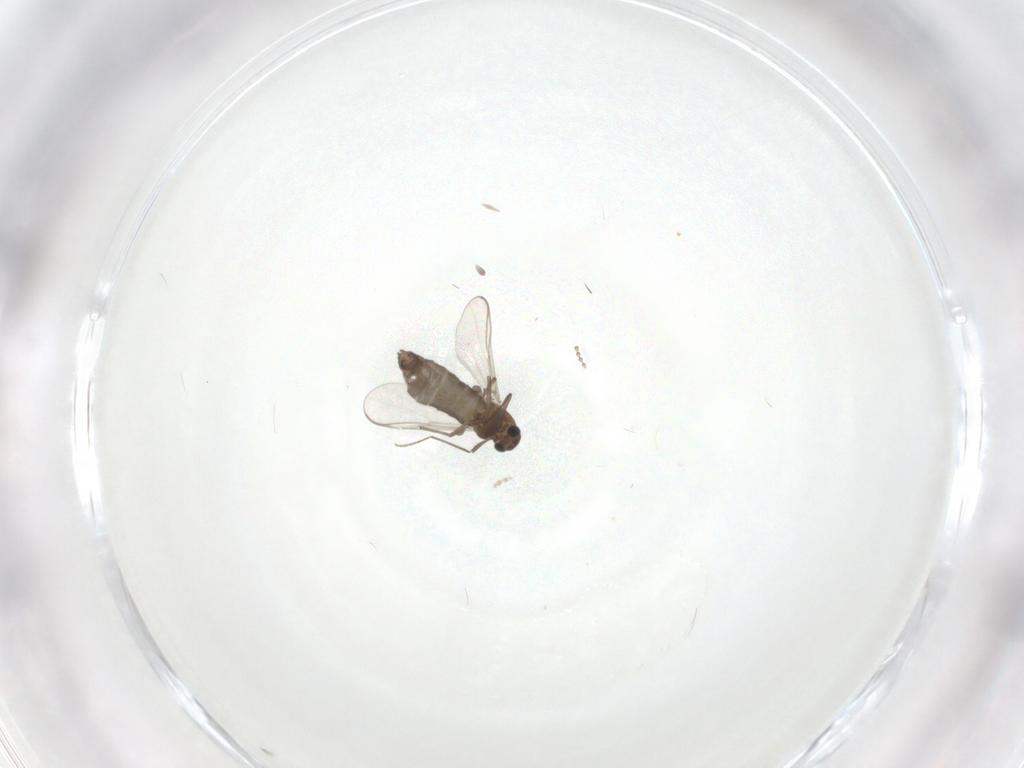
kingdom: Animalia
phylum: Arthropoda
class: Insecta
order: Diptera
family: Chironomidae
